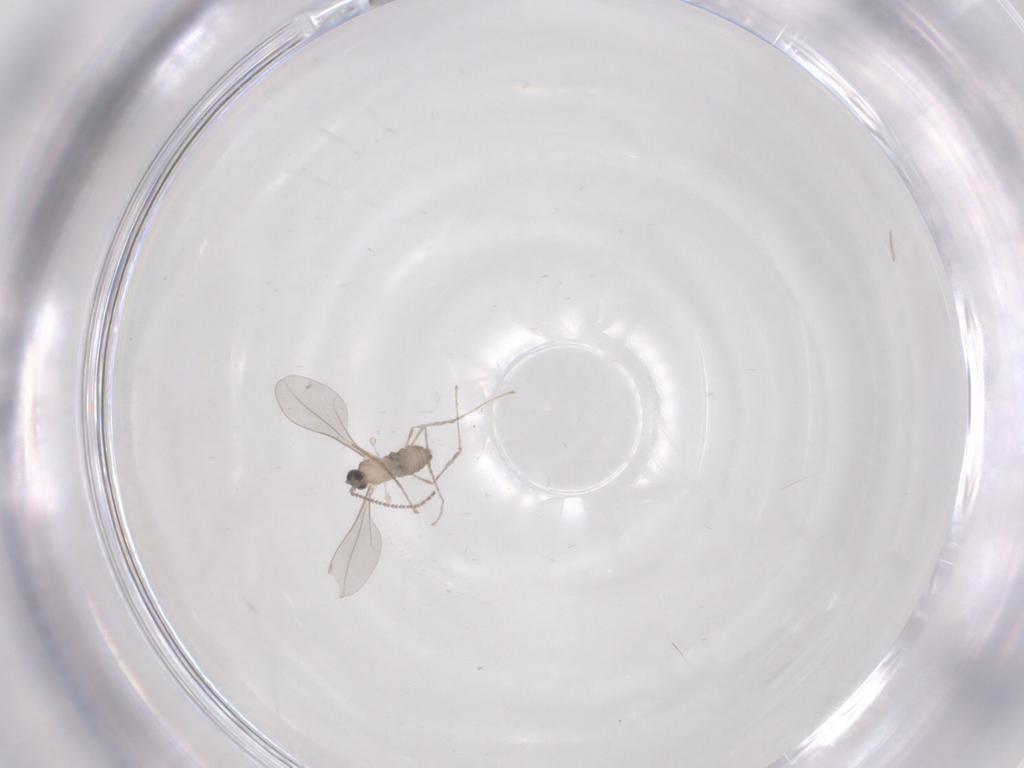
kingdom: Animalia
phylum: Arthropoda
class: Insecta
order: Diptera
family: Cecidomyiidae
